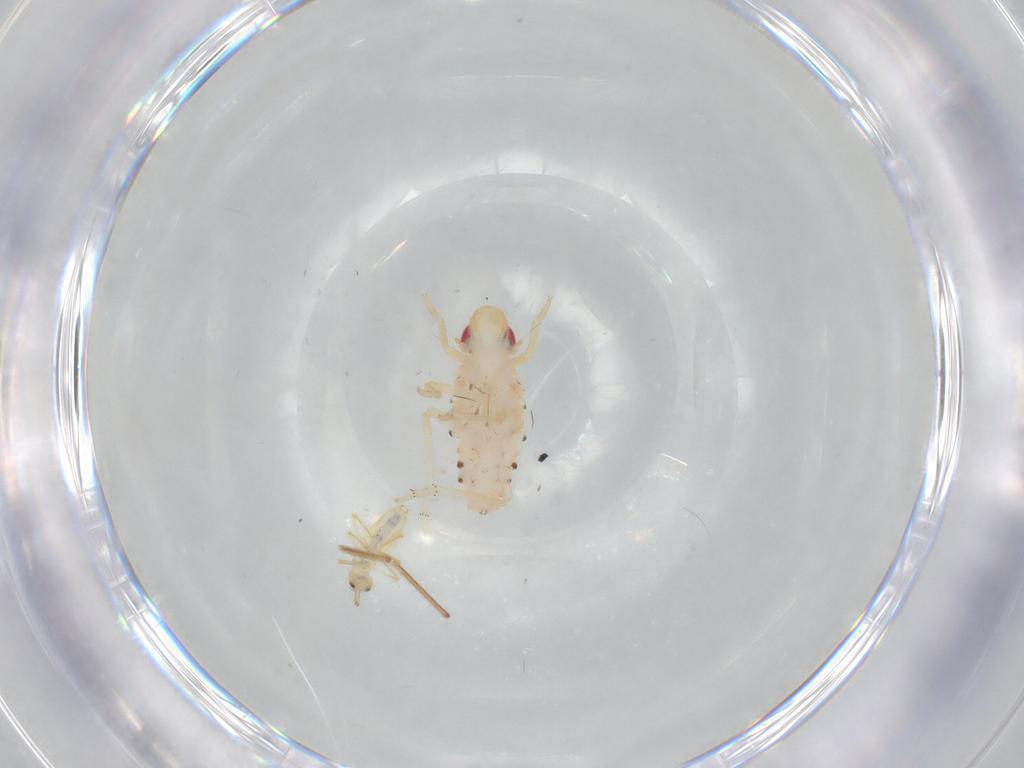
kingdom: Animalia
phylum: Arthropoda
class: Insecta
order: Hemiptera
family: Tropiduchidae
